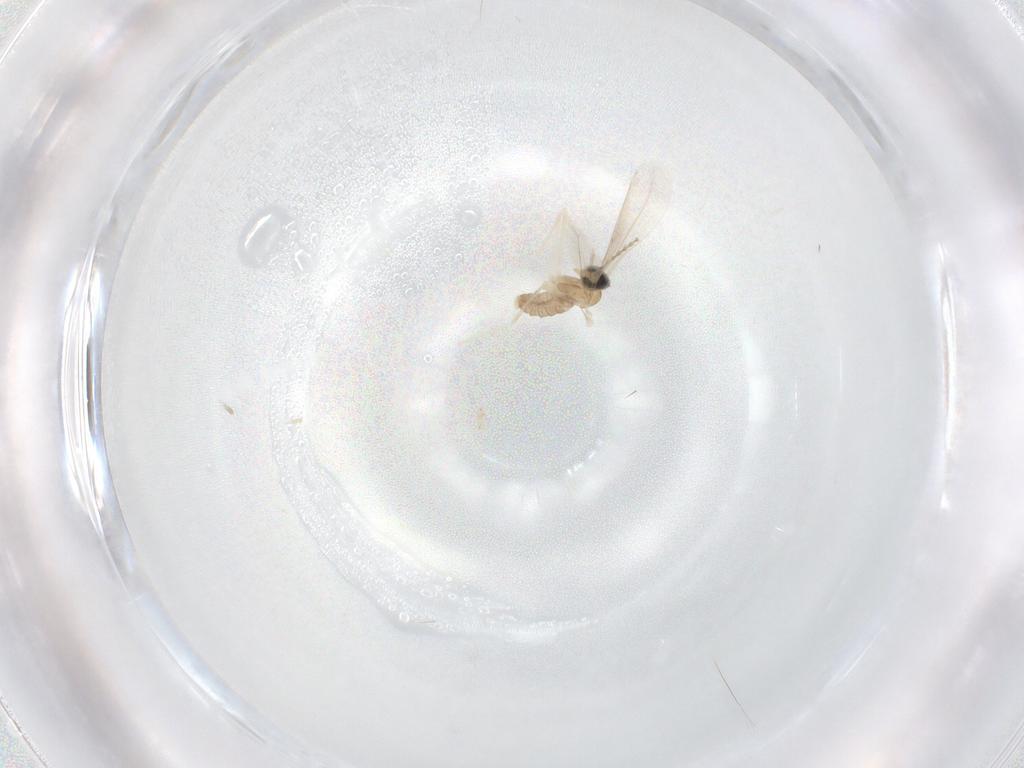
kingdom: Animalia
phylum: Arthropoda
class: Insecta
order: Diptera
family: Cecidomyiidae
